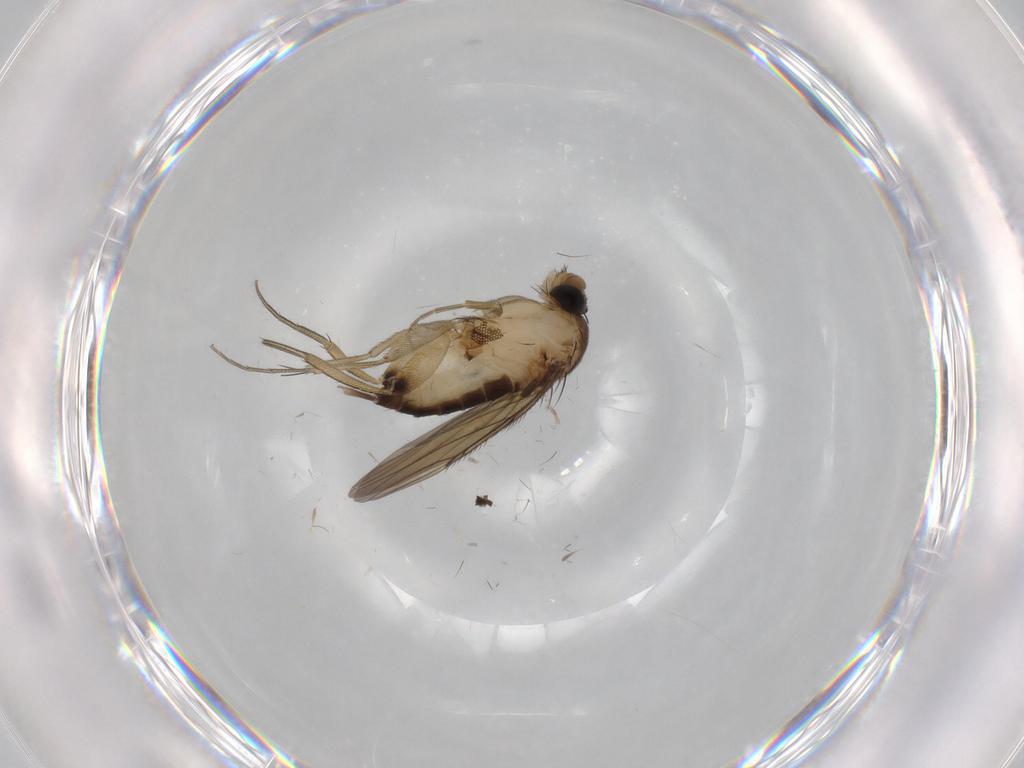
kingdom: Animalia
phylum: Arthropoda
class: Insecta
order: Diptera
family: Phoridae
